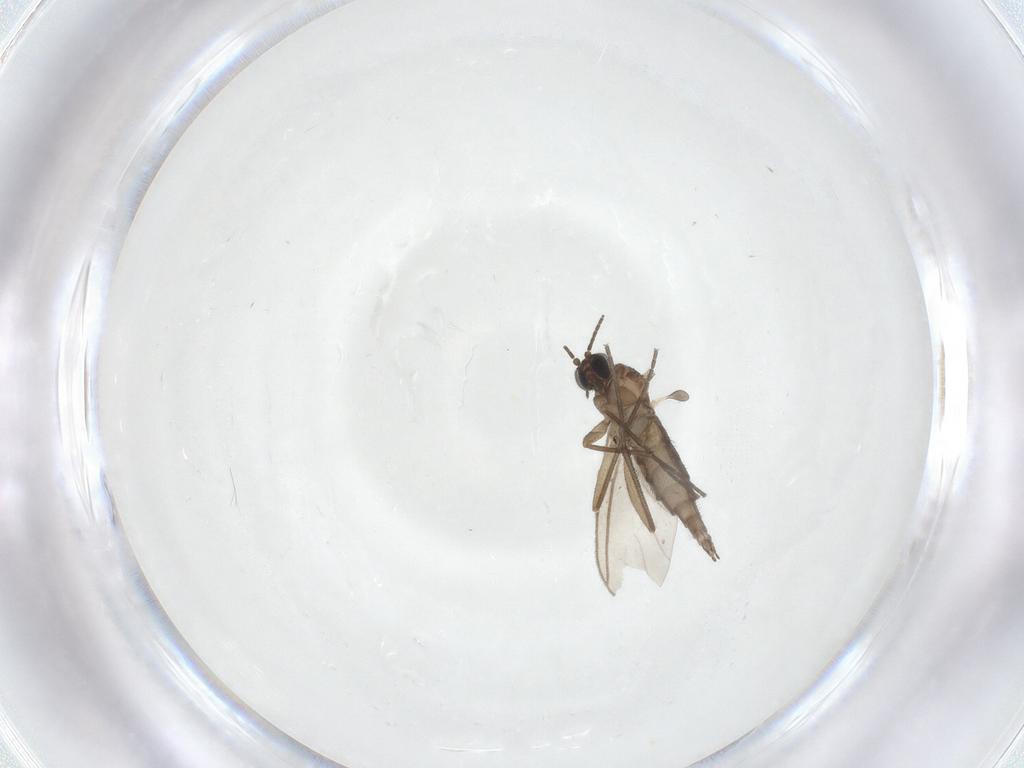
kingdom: Animalia
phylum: Arthropoda
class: Insecta
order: Diptera
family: Sciaridae
